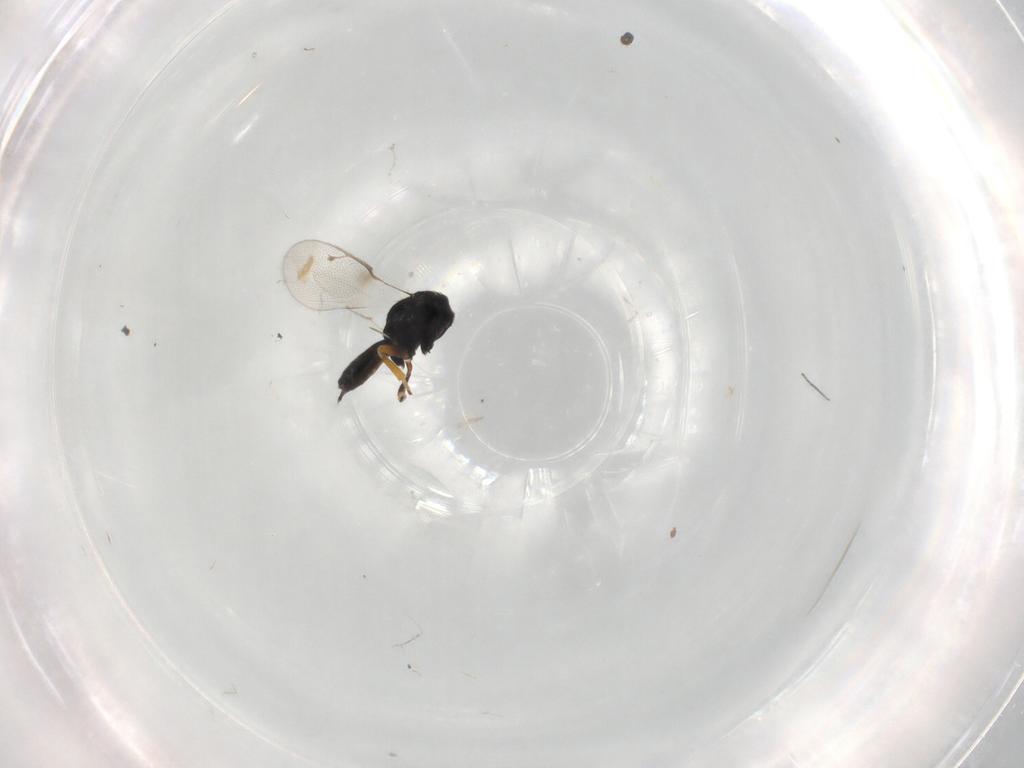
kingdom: Animalia
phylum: Arthropoda
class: Insecta
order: Hymenoptera
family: Pteromalidae
